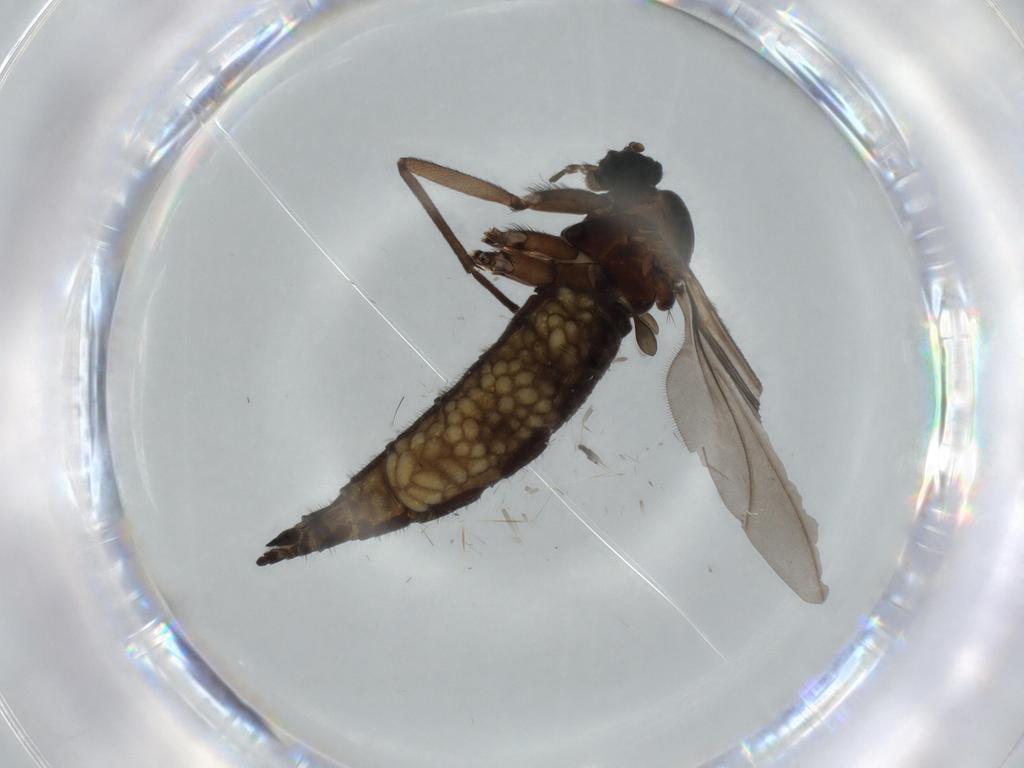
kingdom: Animalia
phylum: Arthropoda
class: Insecta
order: Diptera
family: Sciaridae
